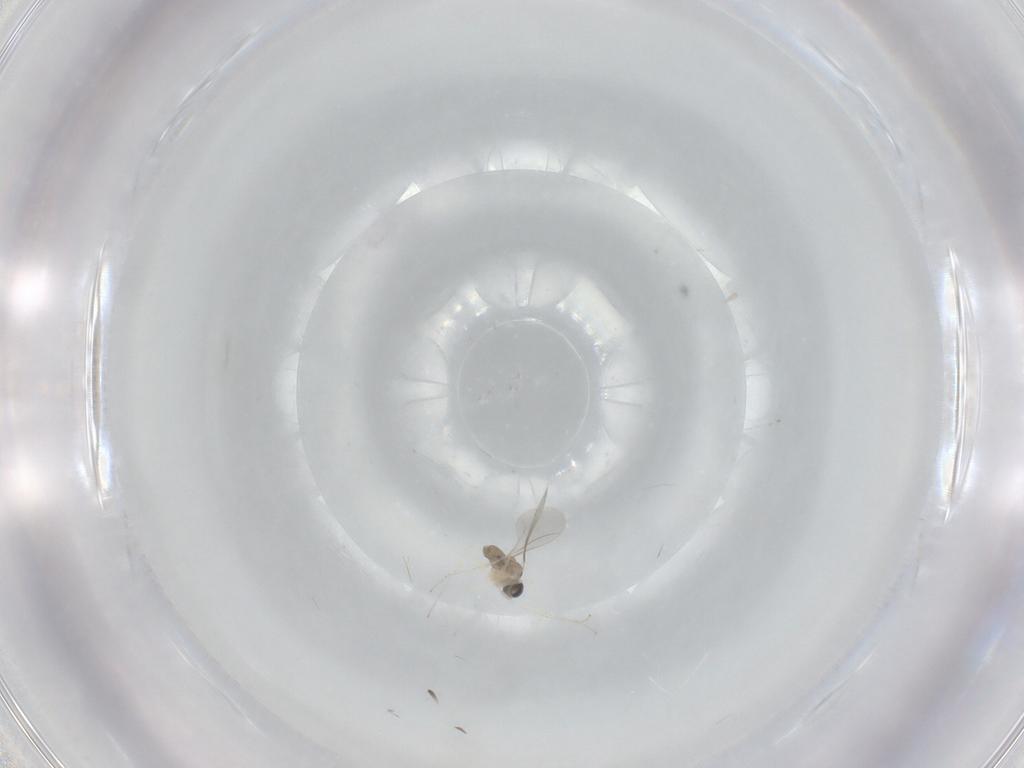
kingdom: Animalia
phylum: Arthropoda
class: Insecta
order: Diptera
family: Cecidomyiidae
